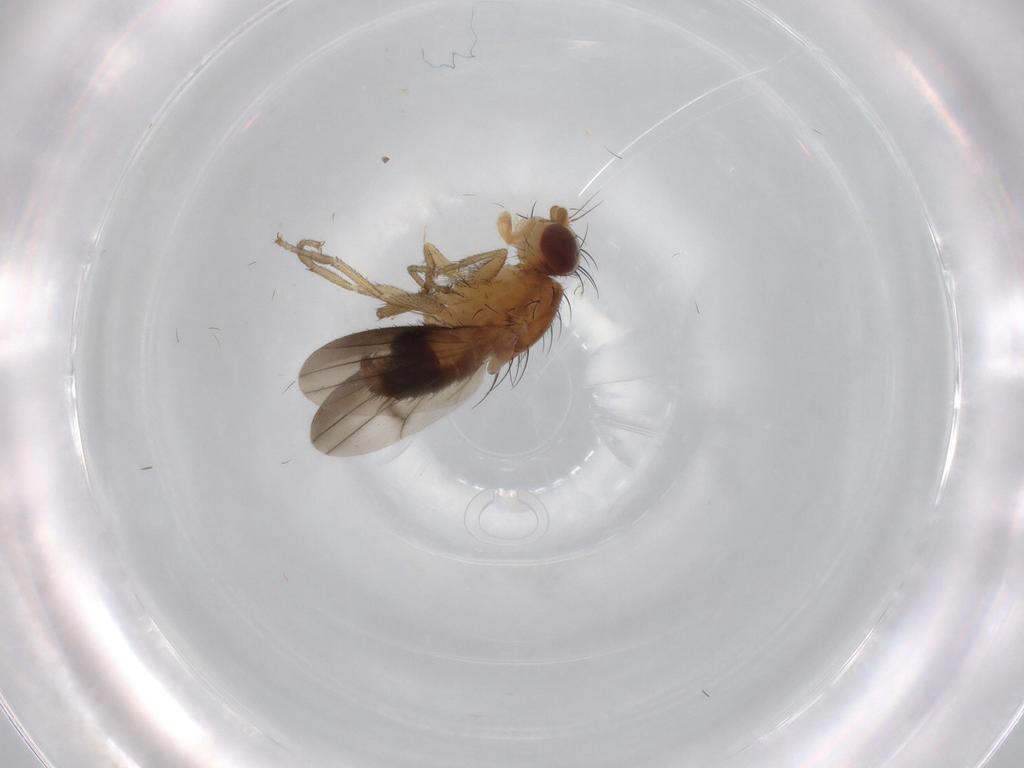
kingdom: Animalia
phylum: Arthropoda
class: Insecta
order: Diptera
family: Heleomyzidae
